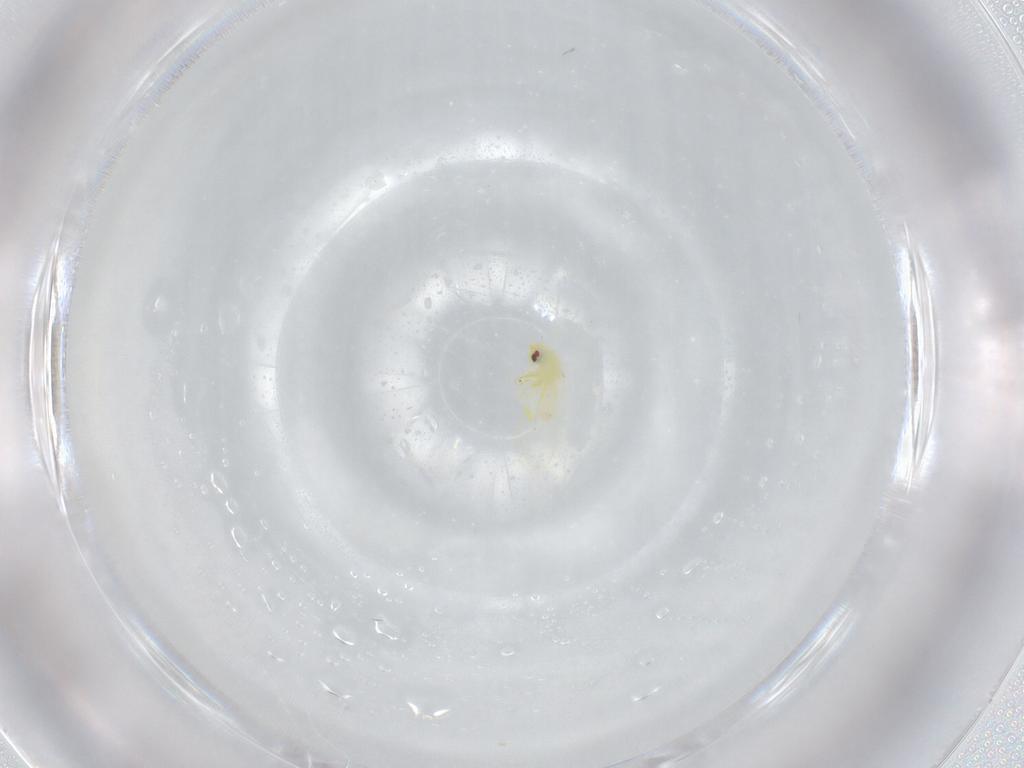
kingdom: Animalia
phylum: Arthropoda
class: Insecta
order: Hemiptera
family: Aleyrodidae
